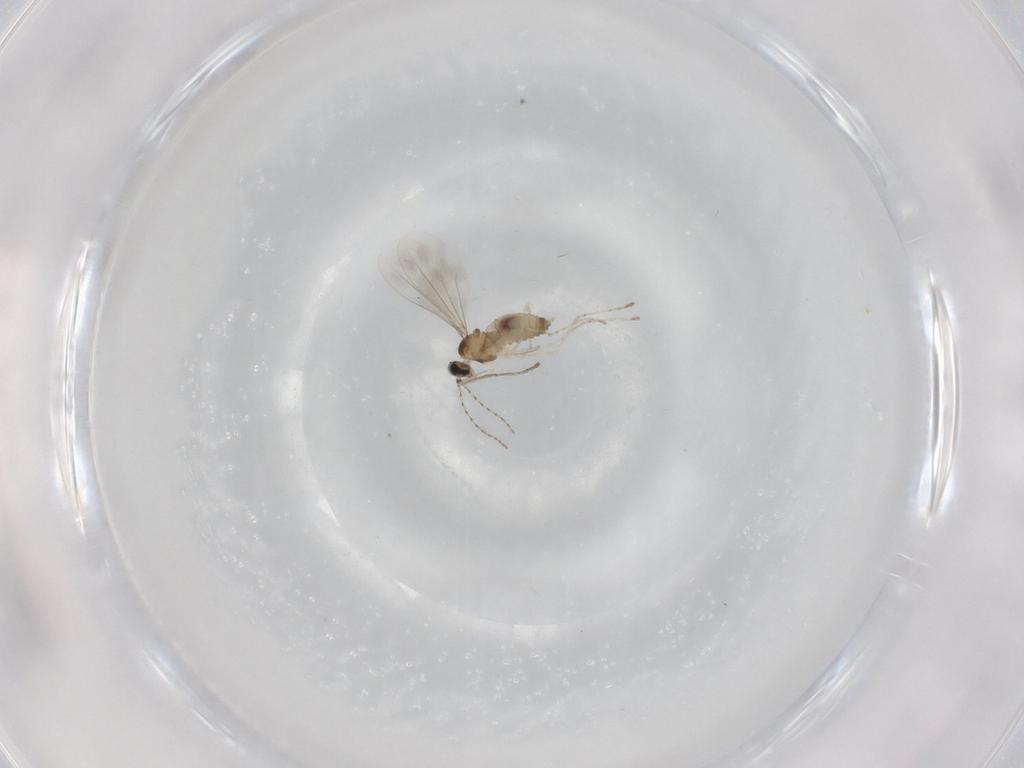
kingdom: Animalia
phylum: Arthropoda
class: Insecta
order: Diptera
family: Cecidomyiidae
